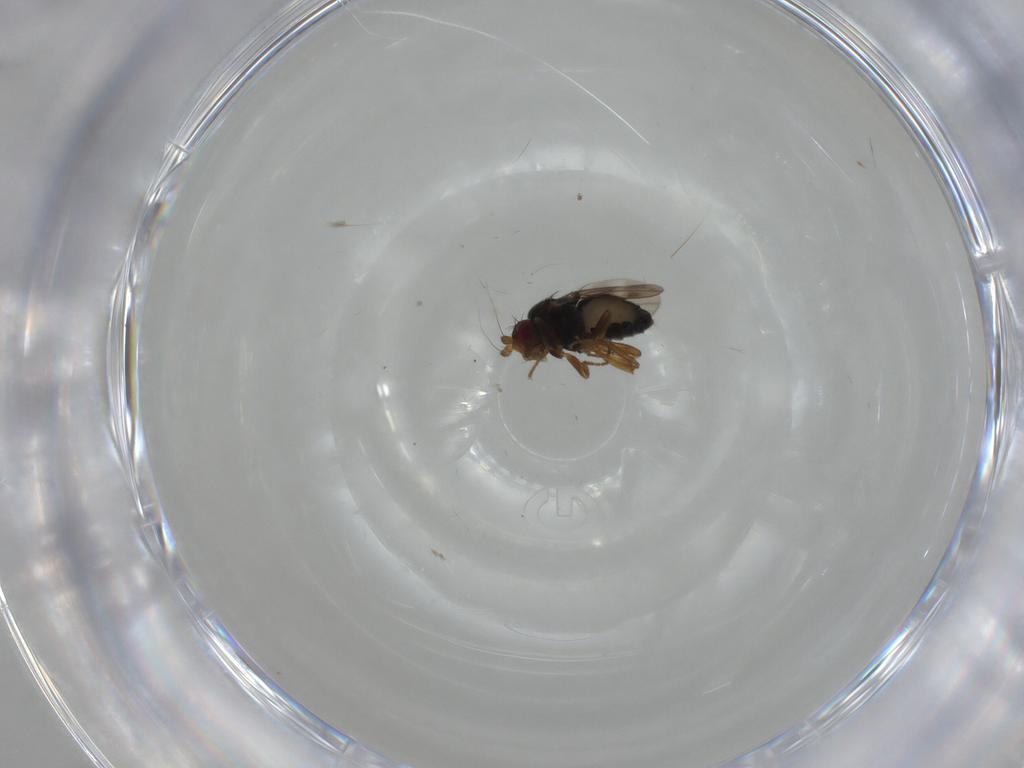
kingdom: Animalia
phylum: Arthropoda
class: Insecta
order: Diptera
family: Sphaeroceridae
